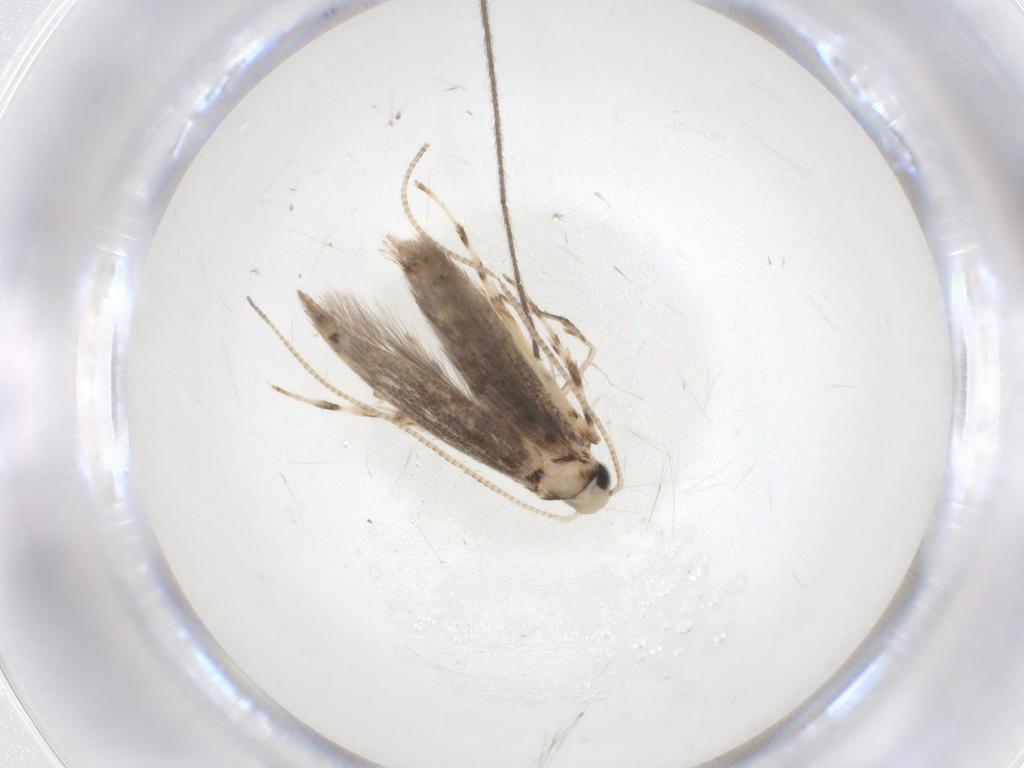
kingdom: Animalia
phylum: Arthropoda
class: Insecta
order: Lepidoptera
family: Gracillariidae
